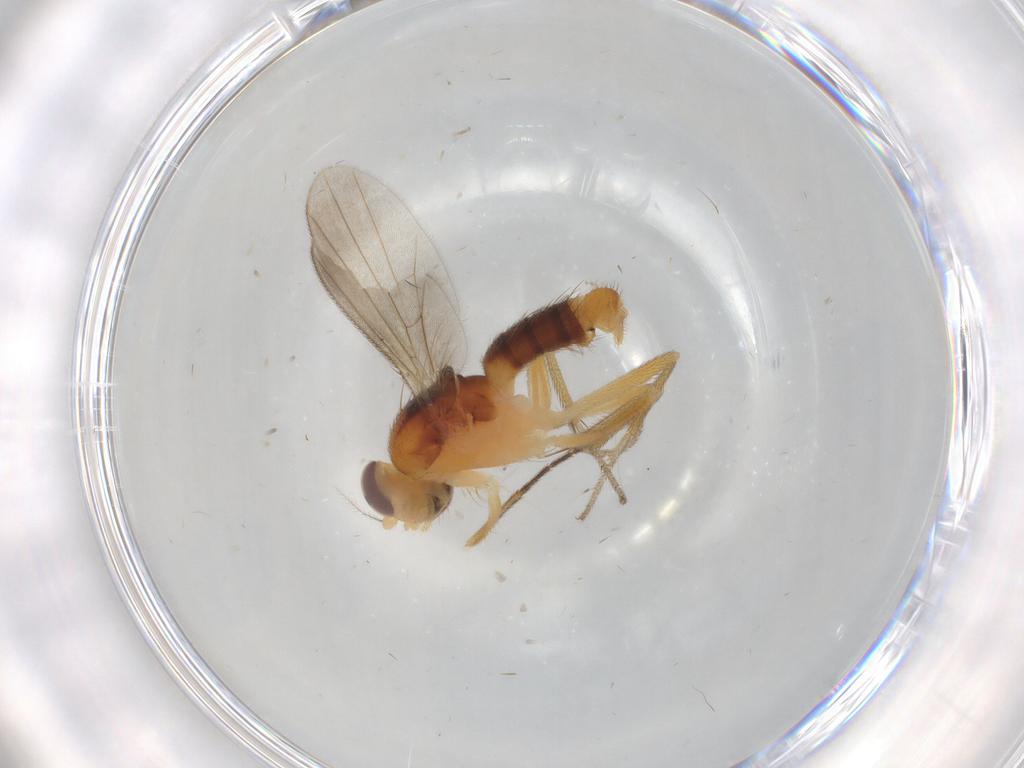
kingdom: Animalia
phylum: Arthropoda
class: Insecta
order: Diptera
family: Clusiidae
